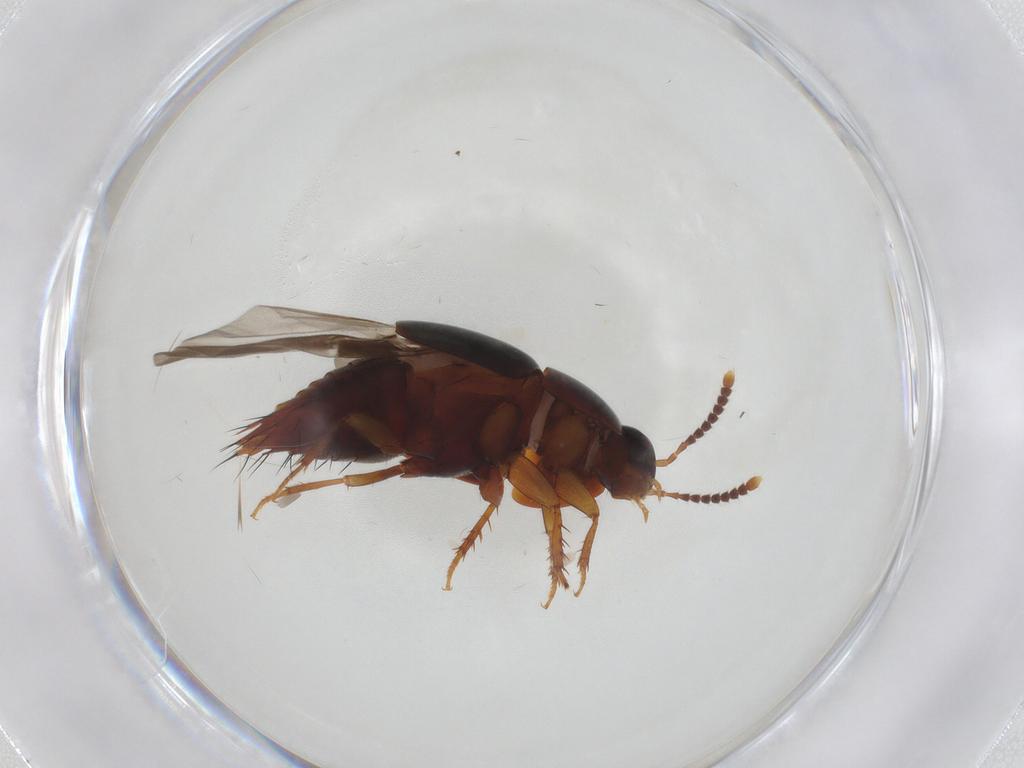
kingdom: Animalia
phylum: Arthropoda
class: Insecta
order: Coleoptera
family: Staphylinidae
